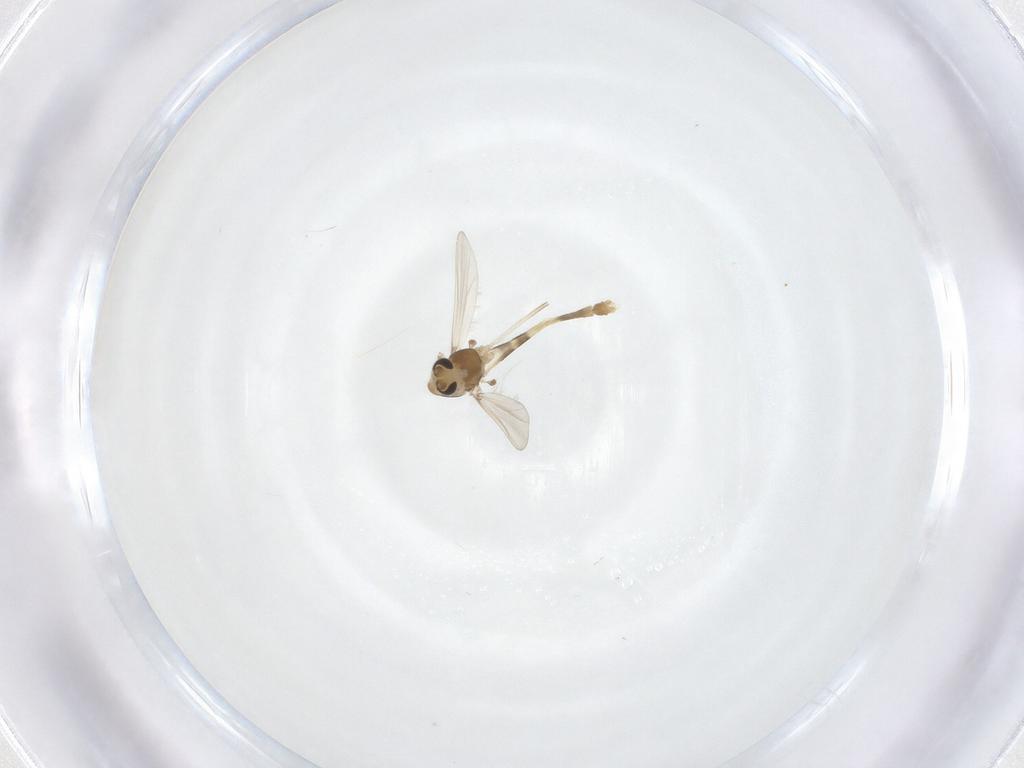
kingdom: Animalia
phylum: Arthropoda
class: Insecta
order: Diptera
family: Chironomidae
